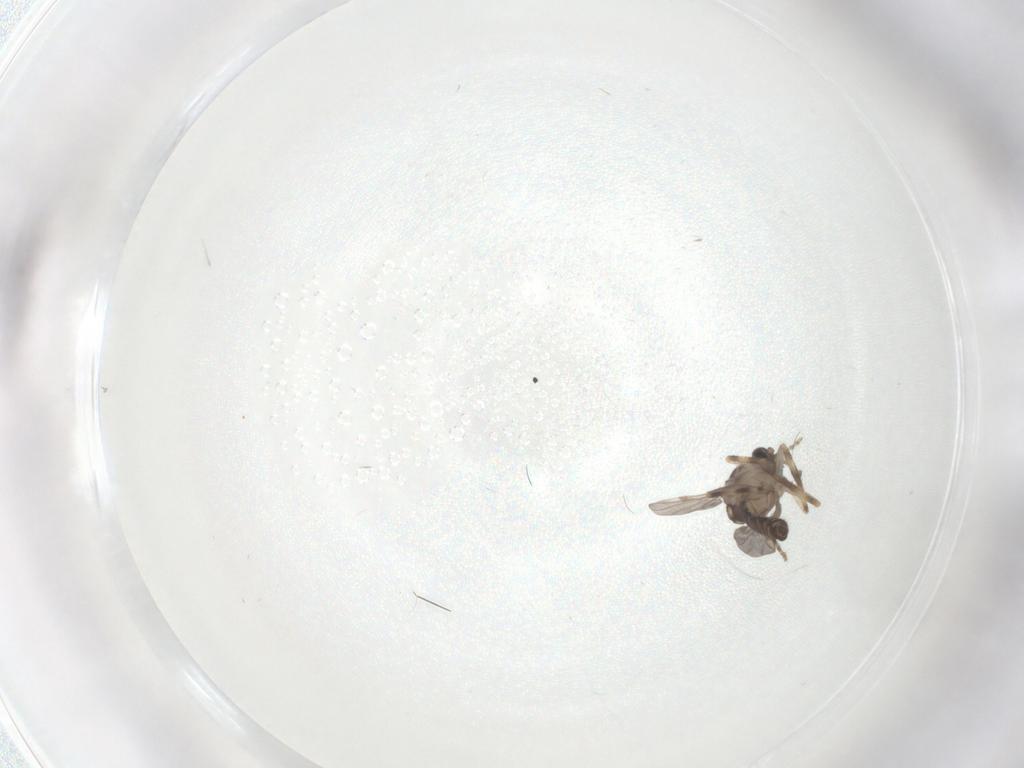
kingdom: Animalia
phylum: Arthropoda
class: Insecta
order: Diptera
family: Ceratopogonidae
